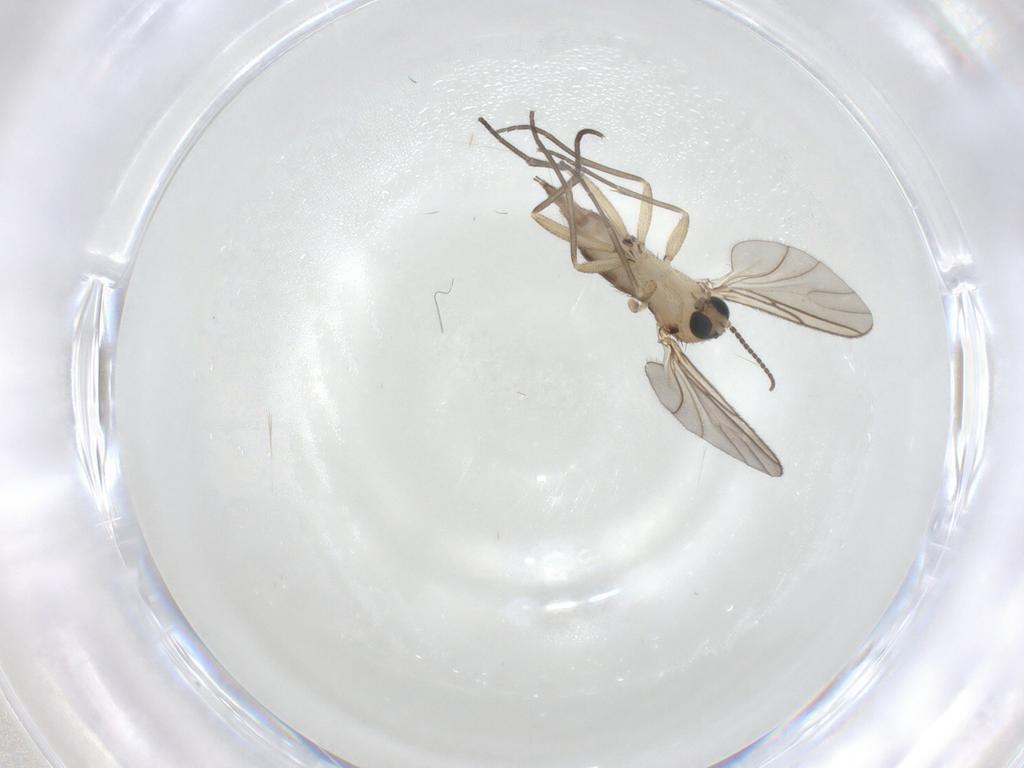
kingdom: Animalia
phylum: Arthropoda
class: Insecta
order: Diptera
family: Sciaridae
